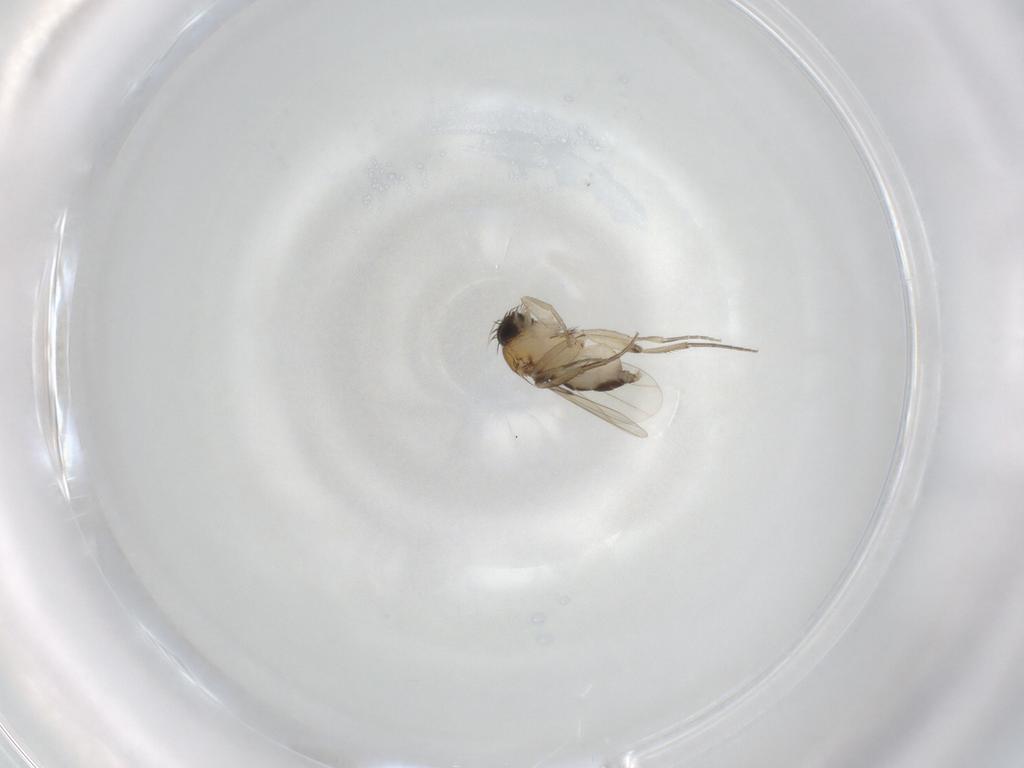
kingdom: Animalia
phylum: Arthropoda
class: Insecta
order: Diptera
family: Phoridae
